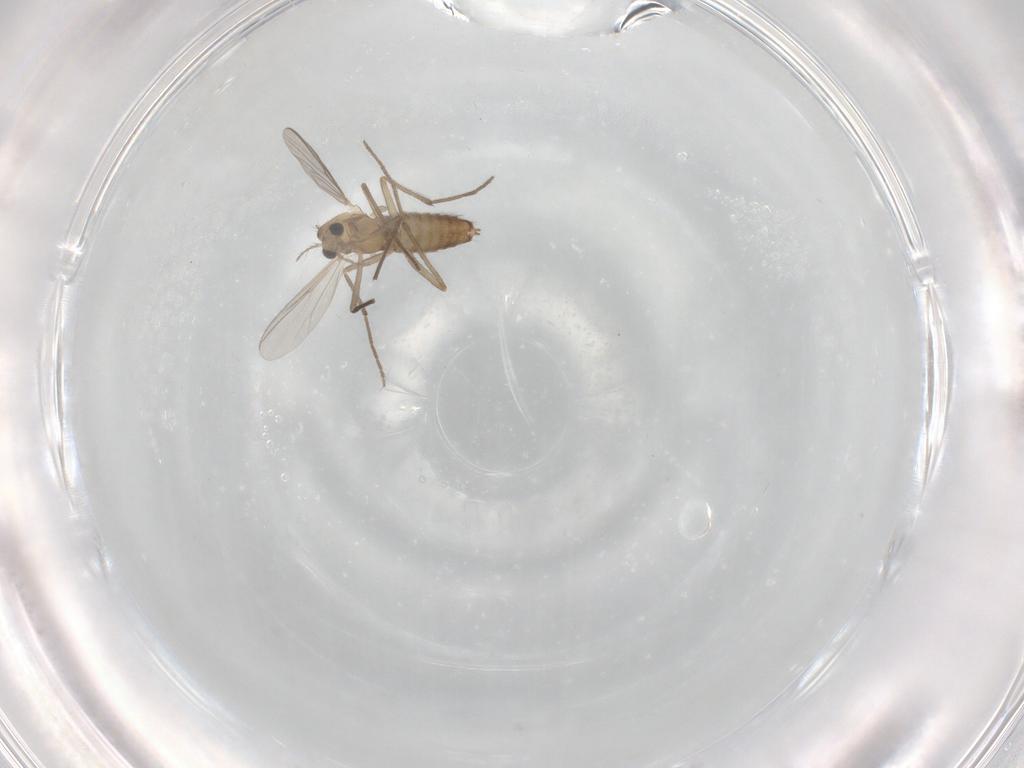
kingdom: Animalia
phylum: Arthropoda
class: Insecta
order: Diptera
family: Chironomidae
